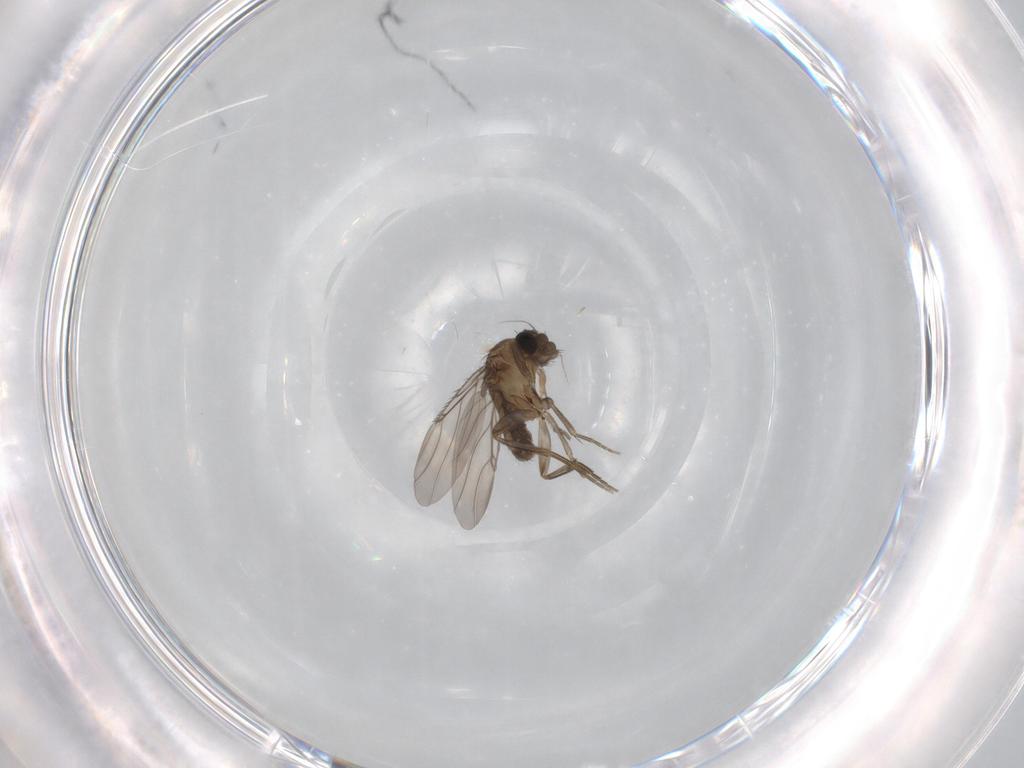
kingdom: Animalia
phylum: Arthropoda
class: Insecta
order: Diptera
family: Phoridae
